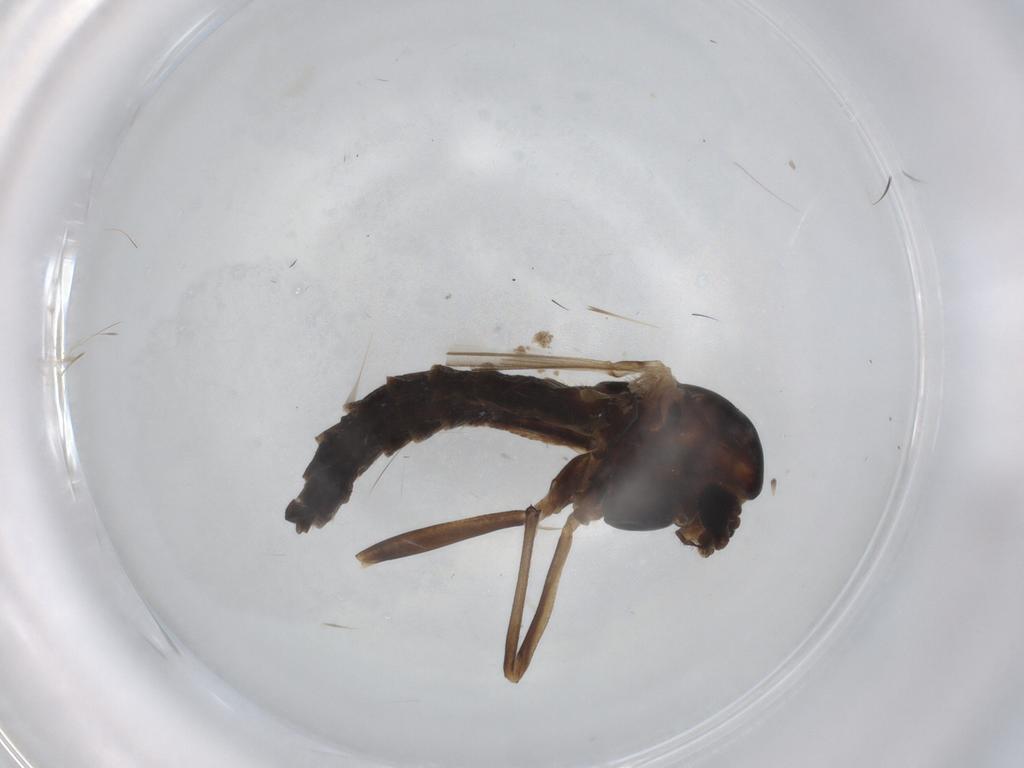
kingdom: Animalia
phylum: Arthropoda
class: Insecta
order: Diptera
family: Chironomidae
